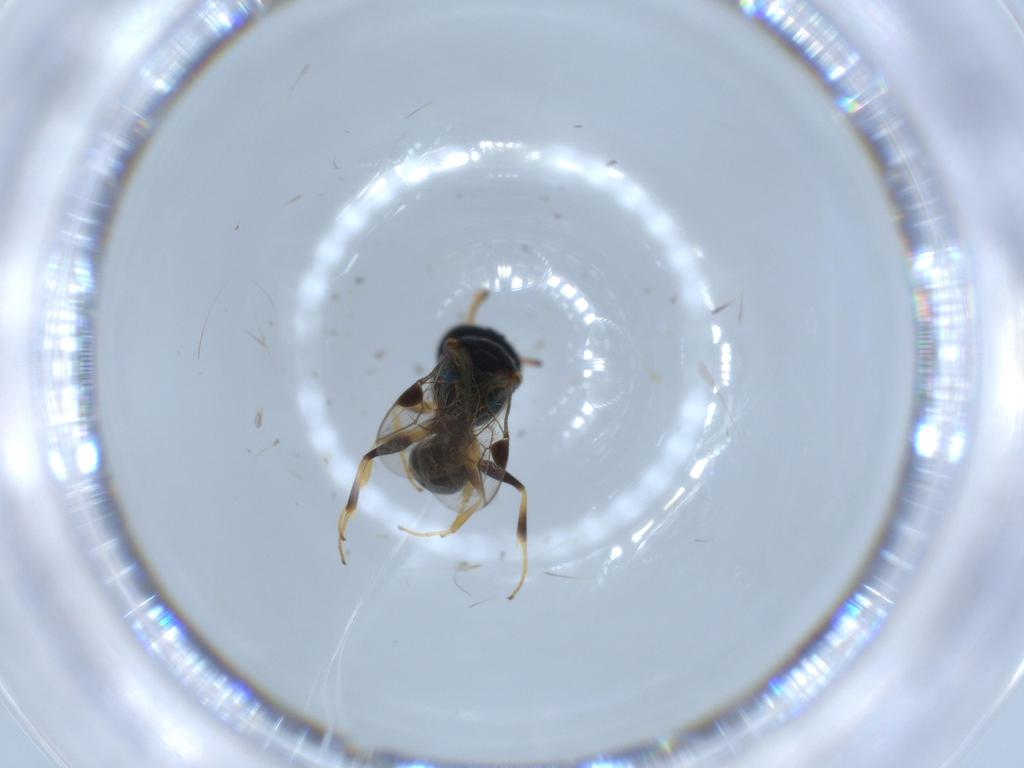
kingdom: Animalia
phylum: Arthropoda
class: Insecta
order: Hymenoptera
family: Pemphredonidae
